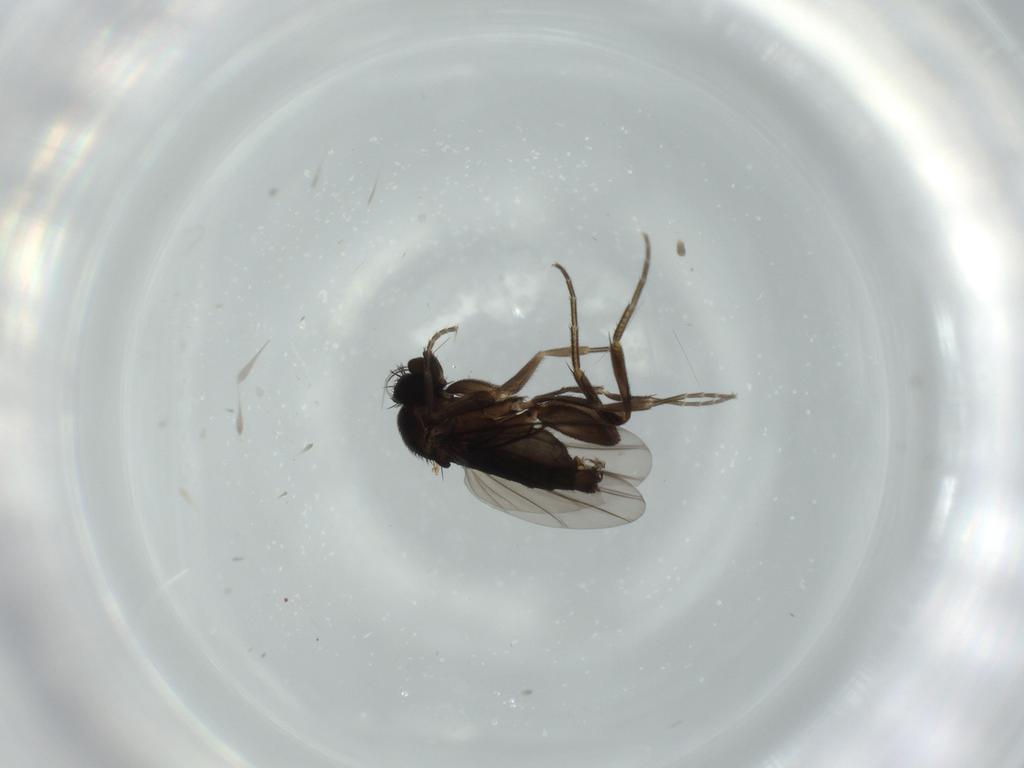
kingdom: Animalia
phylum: Arthropoda
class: Insecta
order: Diptera
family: Phoridae
